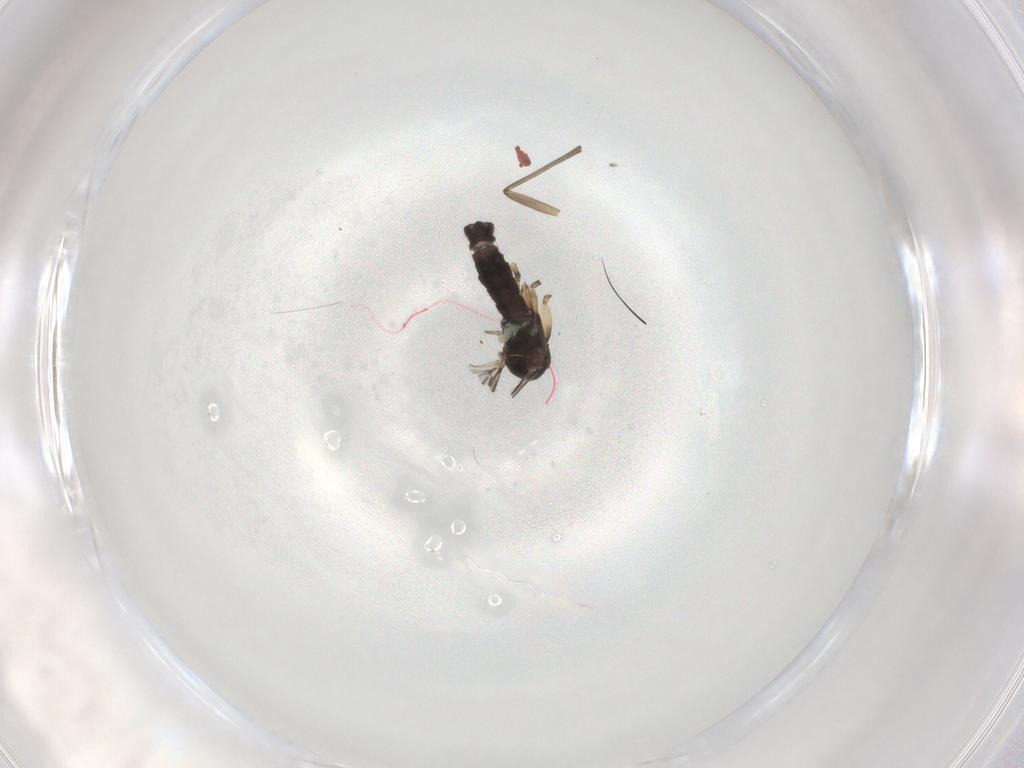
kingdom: Animalia
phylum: Arthropoda
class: Insecta
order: Diptera
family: Sciaridae
